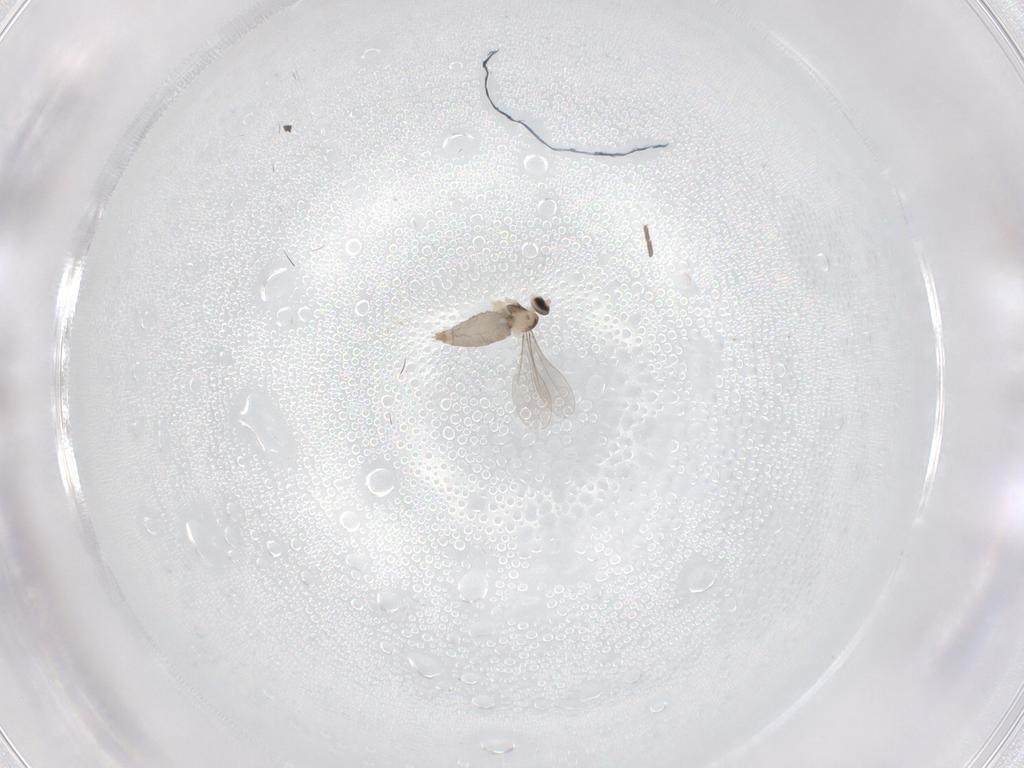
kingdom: Animalia
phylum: Arthropoda
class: Insecta
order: Diptera
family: Sciaridae
